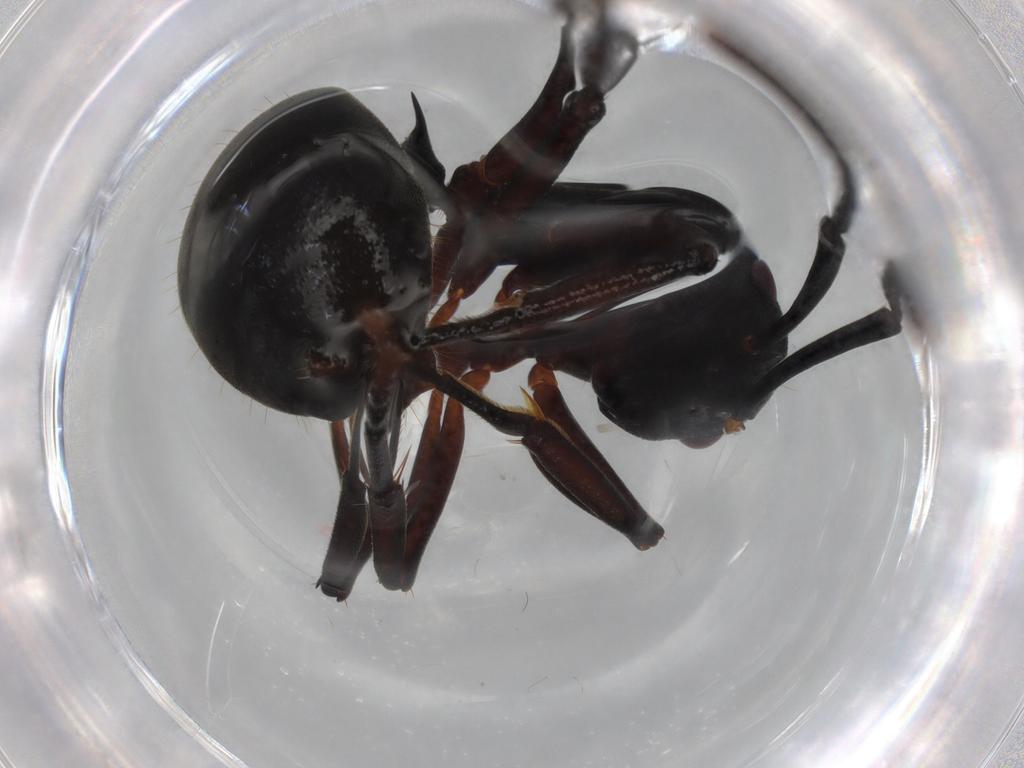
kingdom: Animalia
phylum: Arthropoda
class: Insecta
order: Hymenoptera
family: Formicidae
